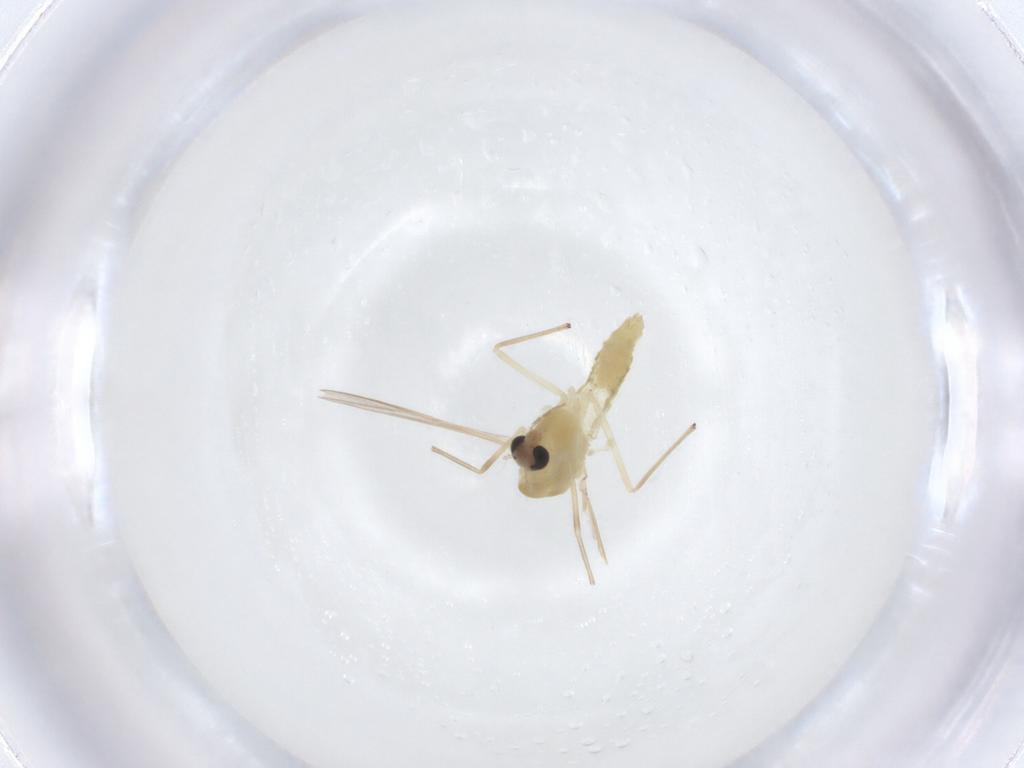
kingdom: Animalia
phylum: Arthropoda
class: Insecta
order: Diptera
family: Chironomidae
